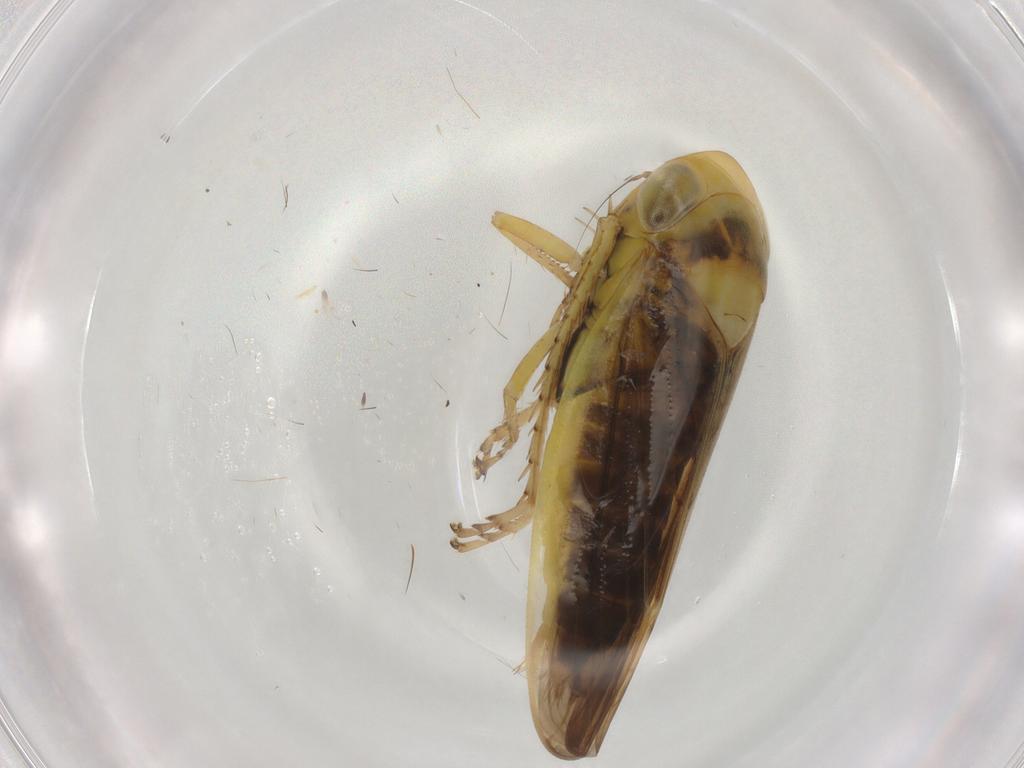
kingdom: Animalia
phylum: Arthropoda
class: Insecta
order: Hemiptera
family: Cicadellidae
